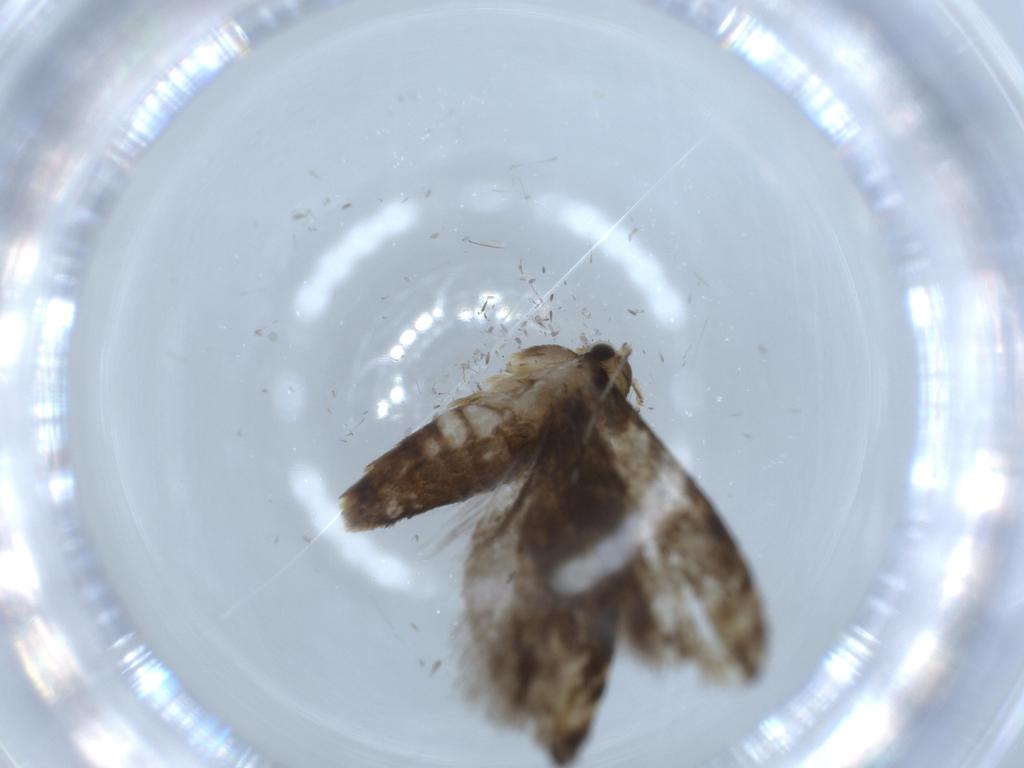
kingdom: Animalia
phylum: Arthropoda
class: Insecta
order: Lepidoptera
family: Tineidae
